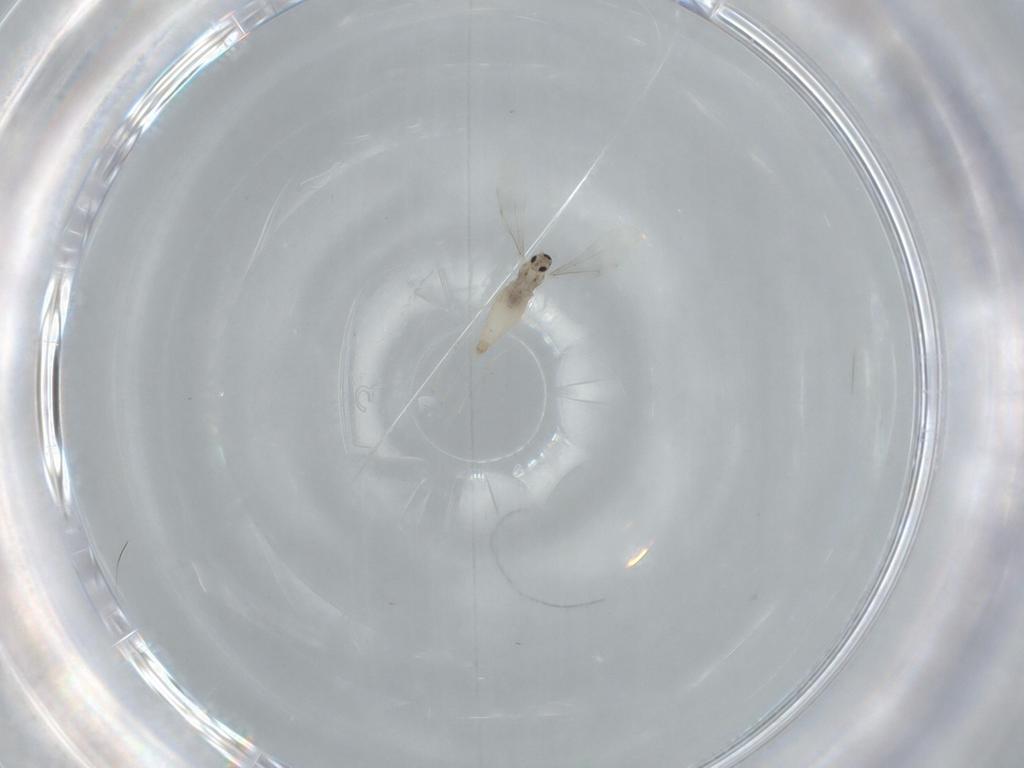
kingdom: Animalia
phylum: Arthropoda
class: Insecta
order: Diptera
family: Cecidomyiidae
